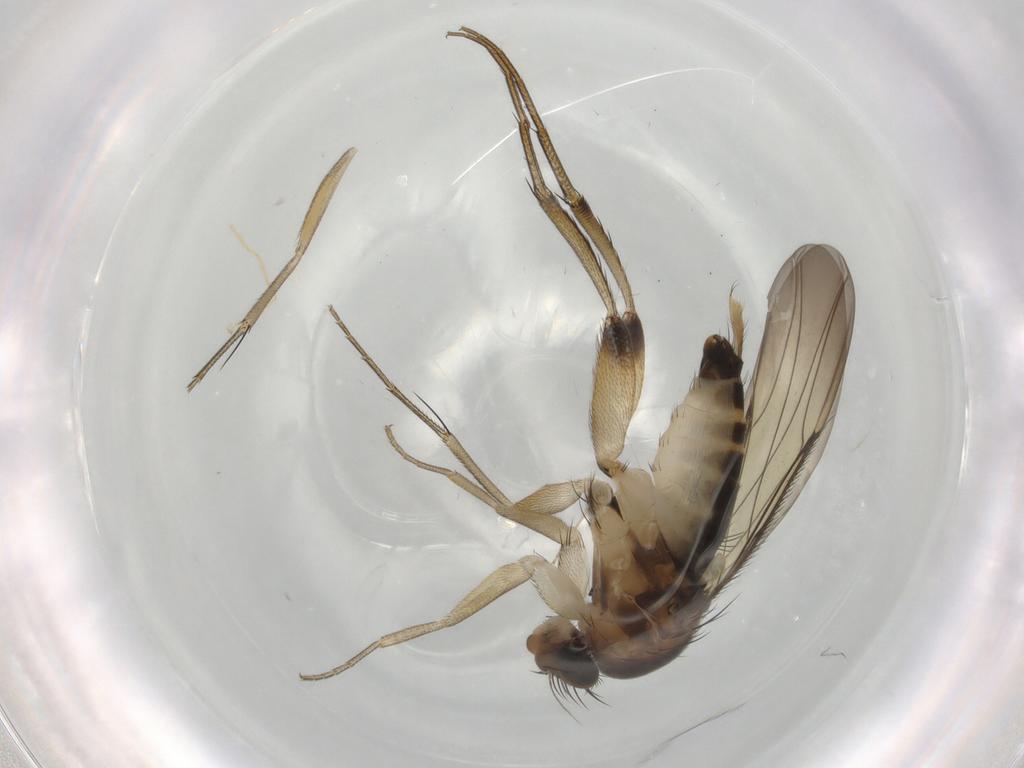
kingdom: Animalia
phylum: Arthropoda
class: Insecta
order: Diptera
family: Phoridae
